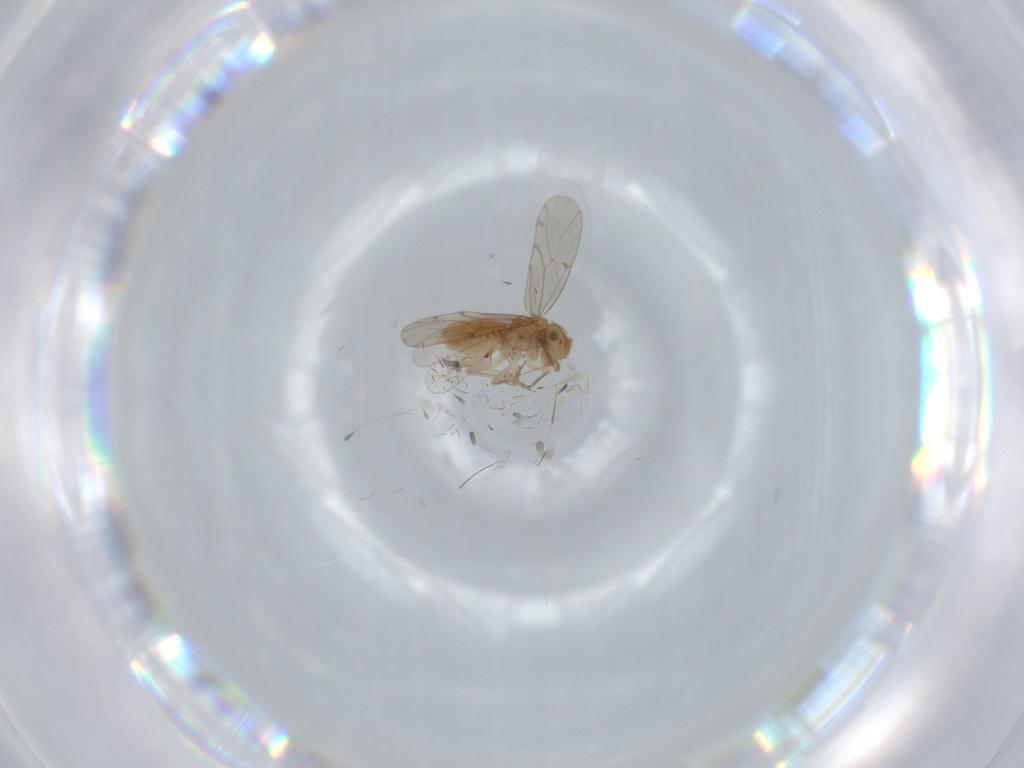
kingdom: Animalia
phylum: Arthropoda
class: Insecta
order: Psocodea
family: Ectopsocidae
